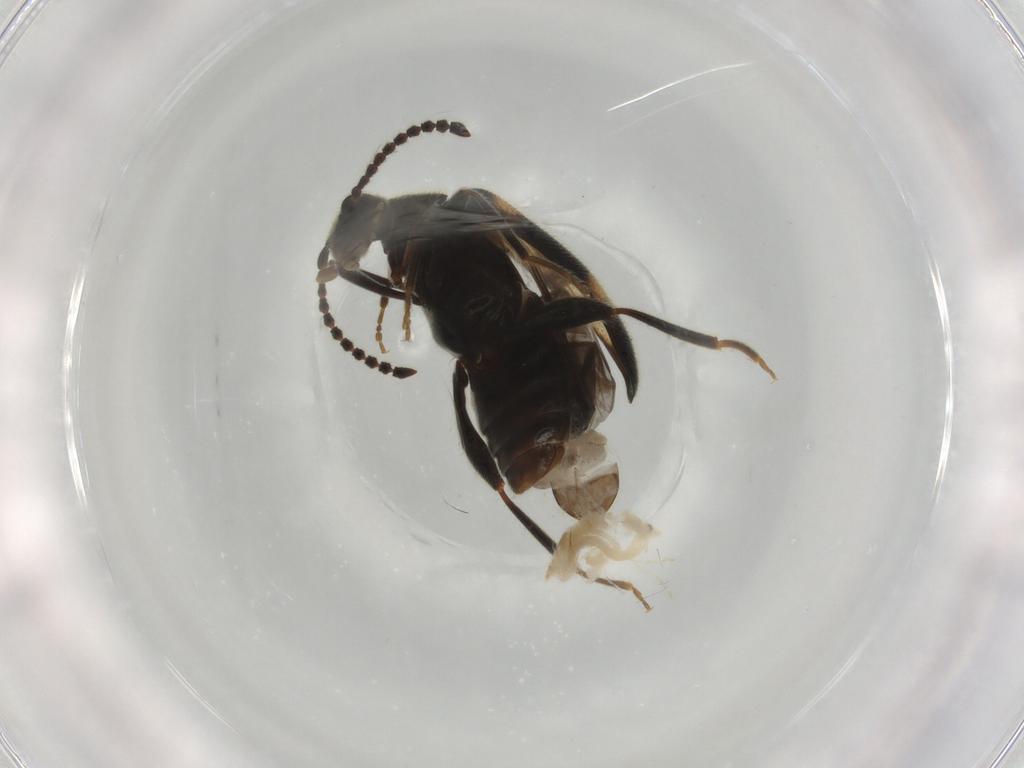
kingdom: Animalia
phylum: Arthropoda
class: Insecta
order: Coleoptera
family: Aderidae
